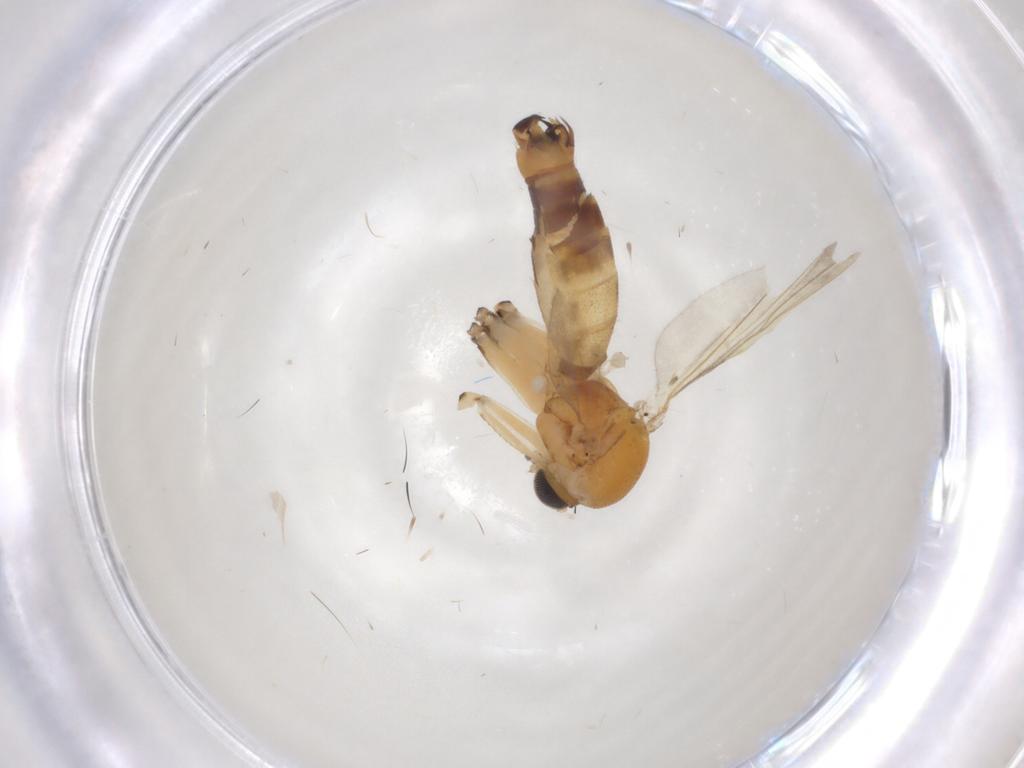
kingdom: Animalia
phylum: Arthropoda
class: Insecta
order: Diptera
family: Mycetophilidae
